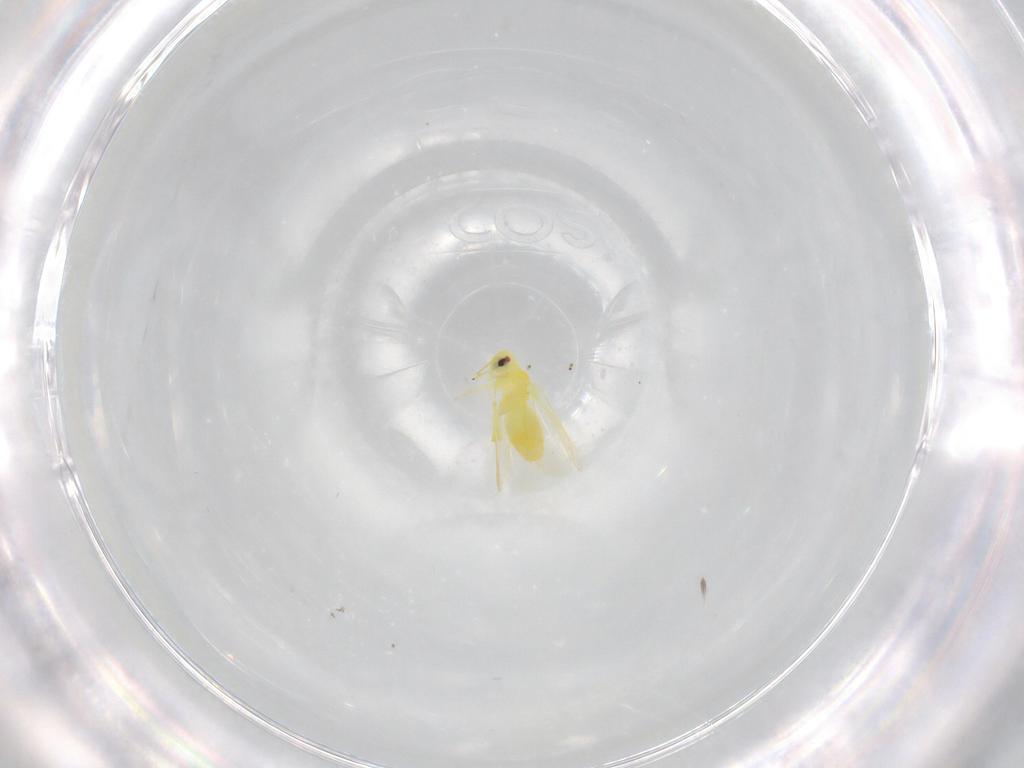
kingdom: Animalia
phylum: Arthropoda
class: Insecta
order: Hemiptera
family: Aleyrodidae
